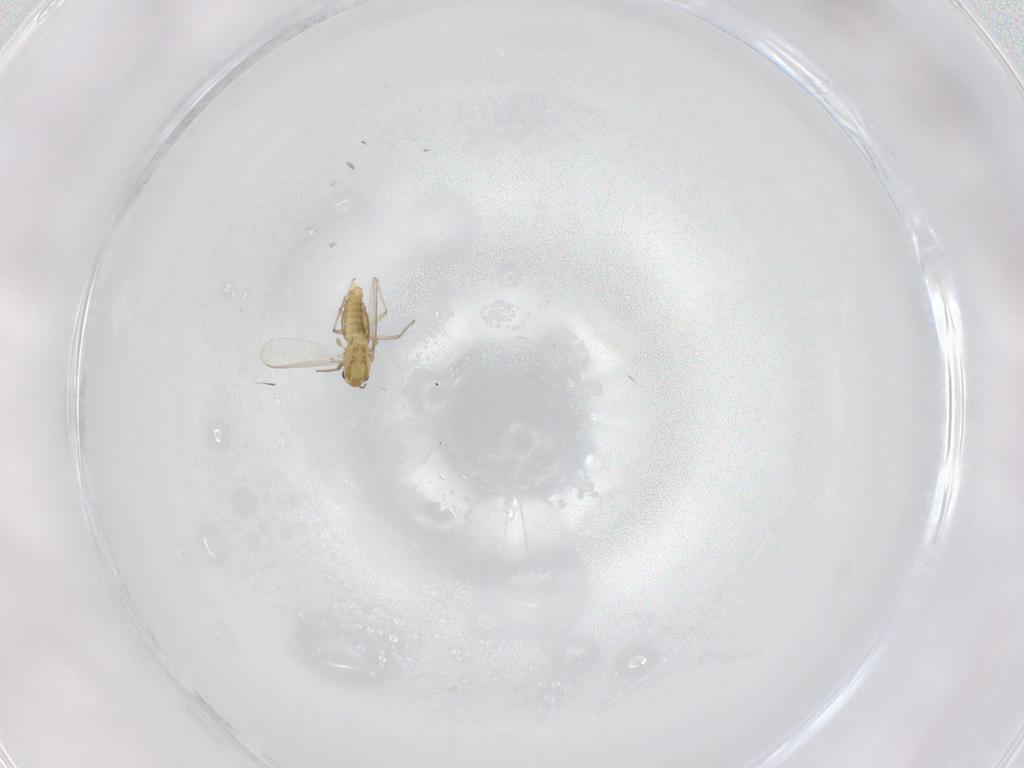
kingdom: Animalia
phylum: Arthropoda
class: Insecta
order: Diptera
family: Chironomidae
